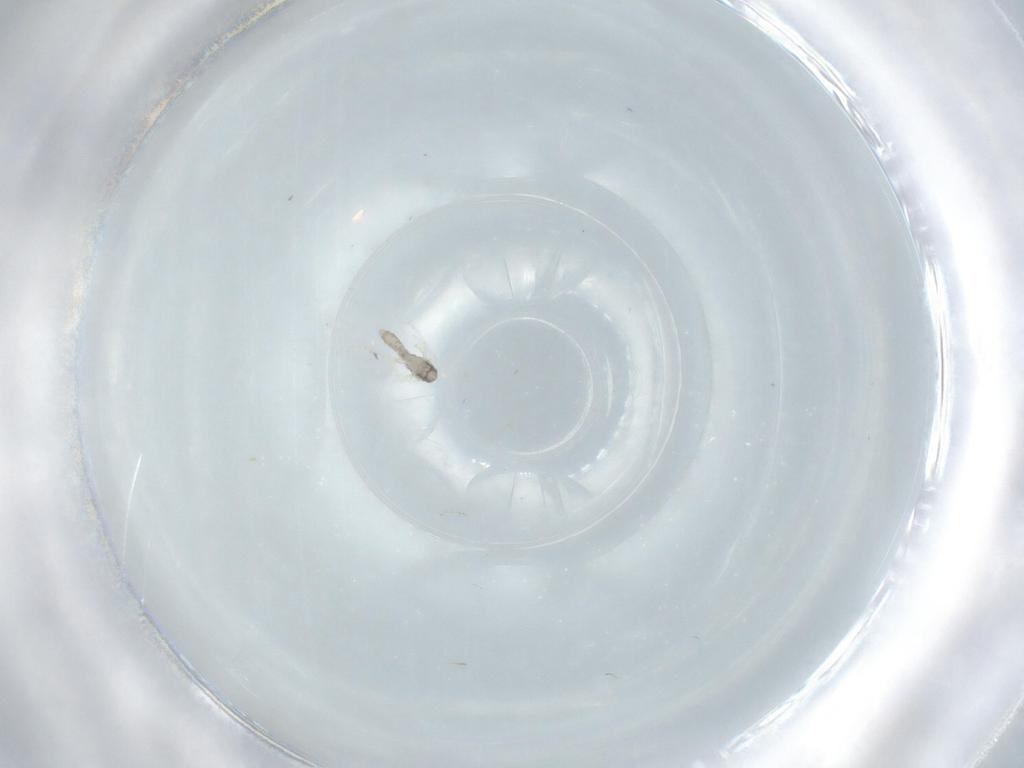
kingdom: Animalia
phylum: Arthropoda
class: Insecta
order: Diptera
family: Cecidomyiidae
